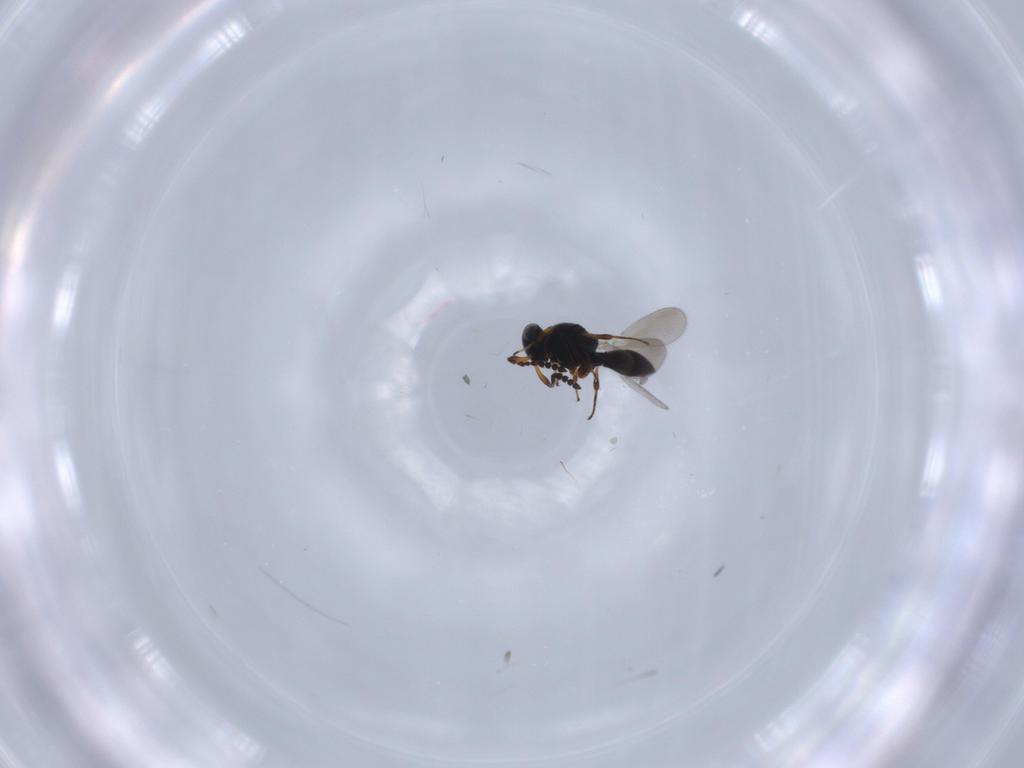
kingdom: Animalia
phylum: Arthropoda
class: Insecta
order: Hymenoptera
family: Platygastridae
